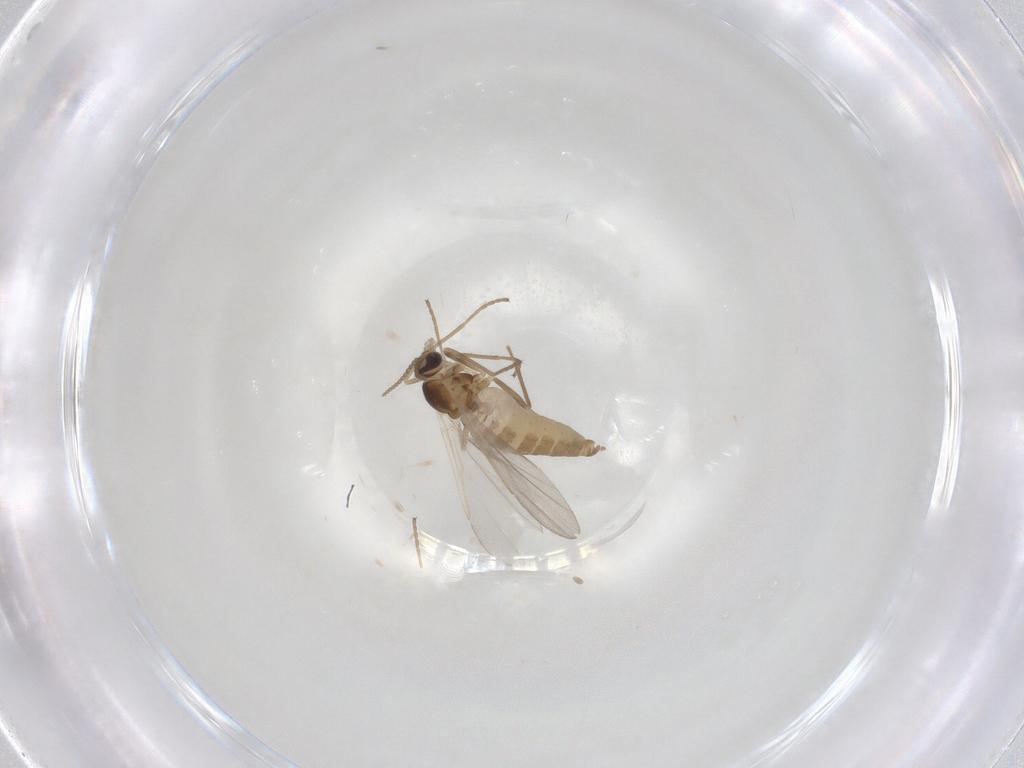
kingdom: Animalia
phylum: Arthropoda
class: Insecta
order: Diptera
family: Cecidomyiidae
